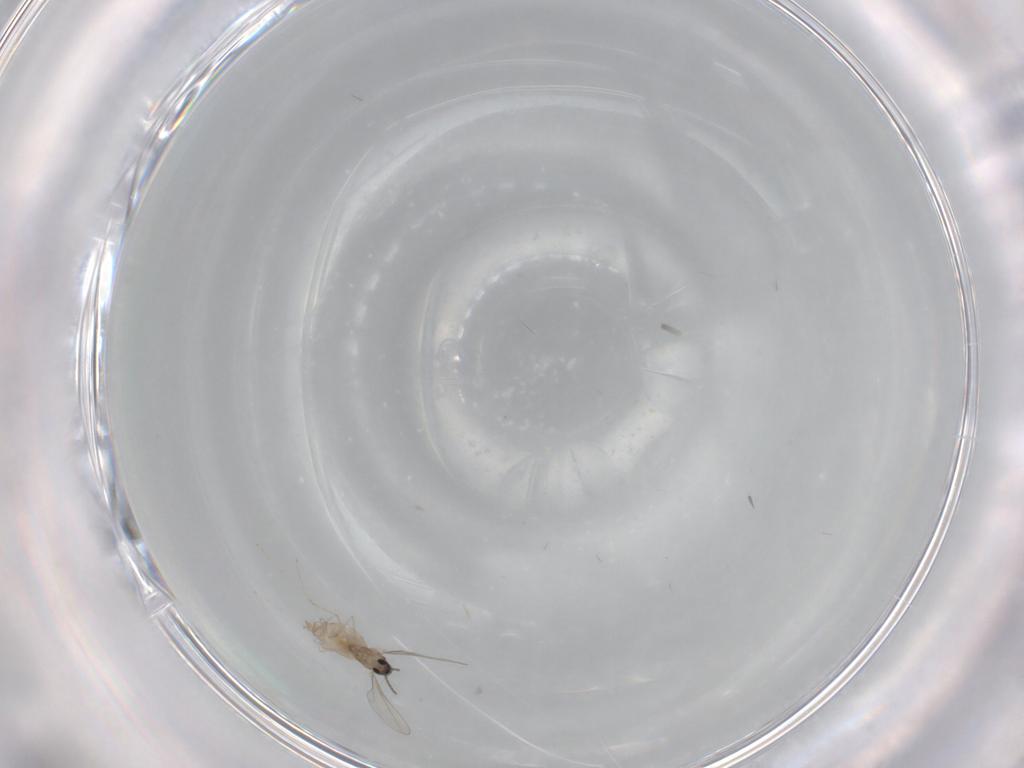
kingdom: Animalia
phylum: Arthropoda
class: Insecta
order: Diptera
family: Cecidomyiidae
